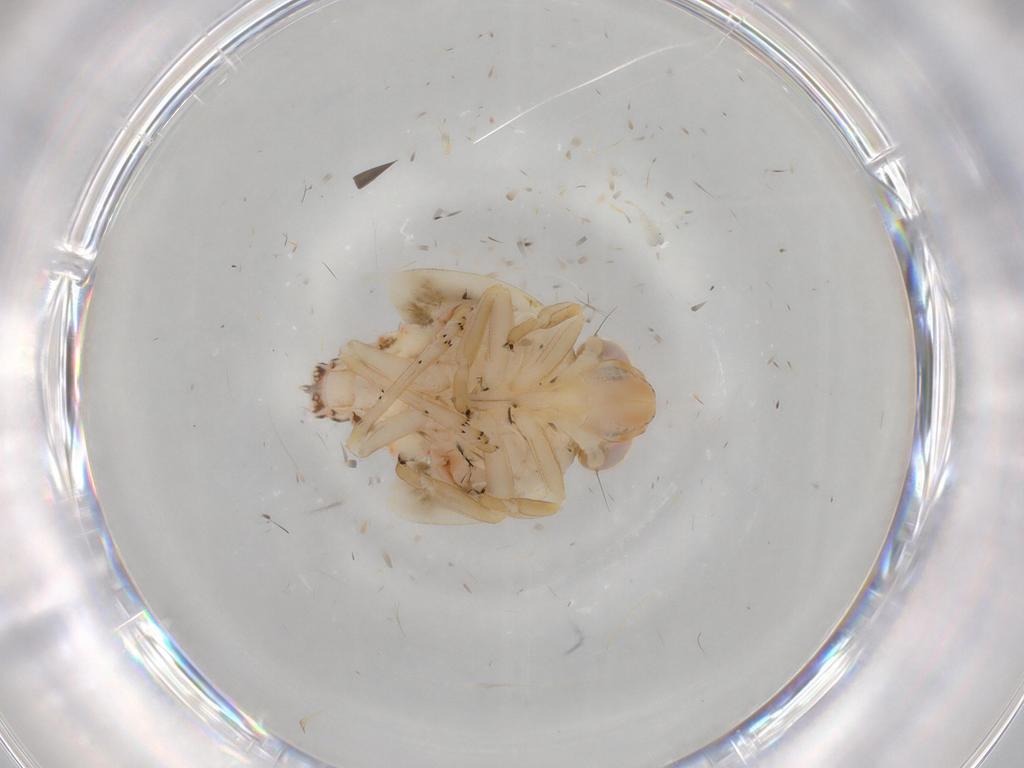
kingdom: Animalia
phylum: Arthropoda
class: Insecta
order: Hemiptera
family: Nogodinidae
